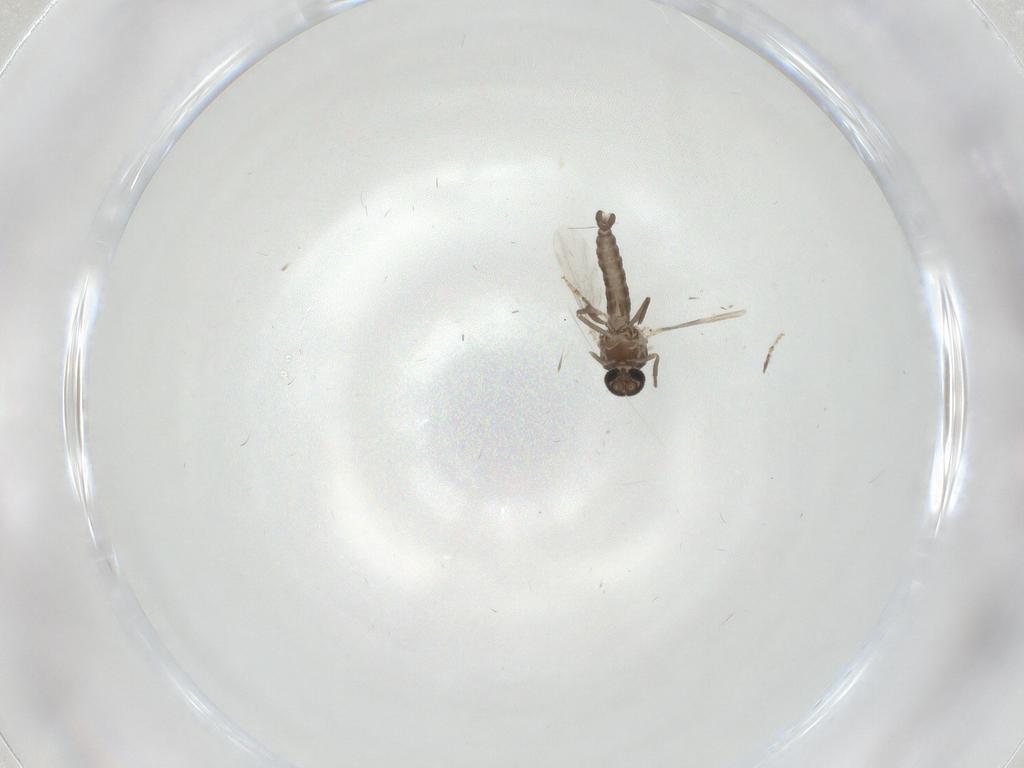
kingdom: Animalia
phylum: Arthropoda
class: Insecta
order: Diptera
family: Ceratopogonidae
